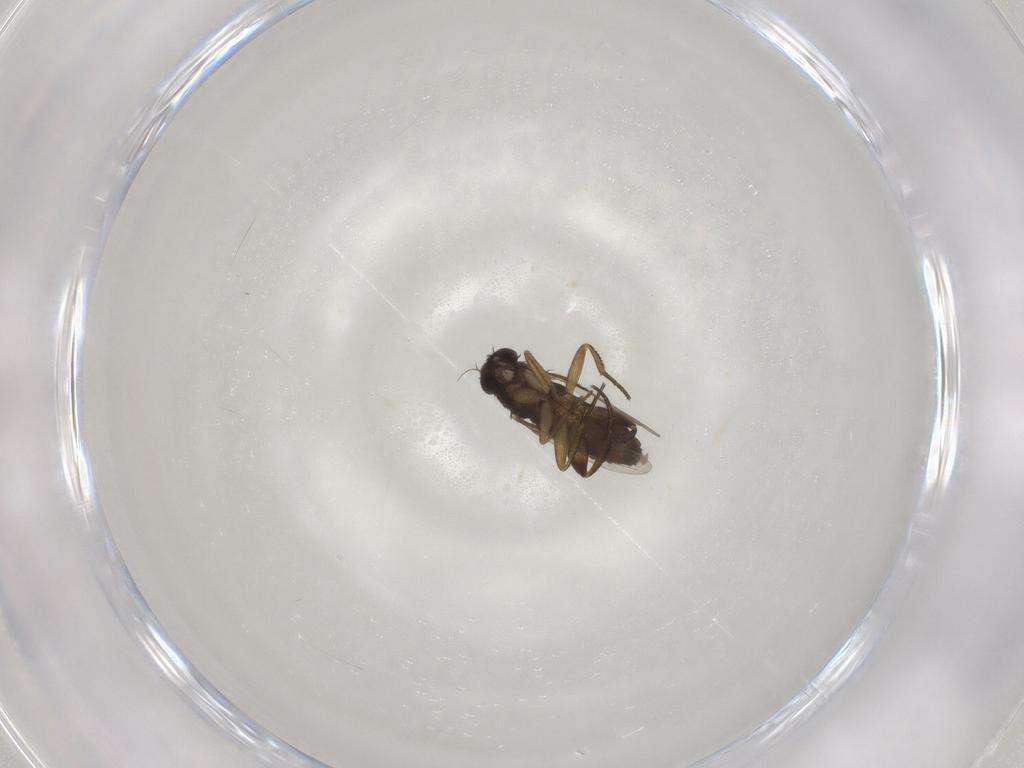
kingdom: Animalia
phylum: Arthropoda
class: Insecta
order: Diptera
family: Phoridae
